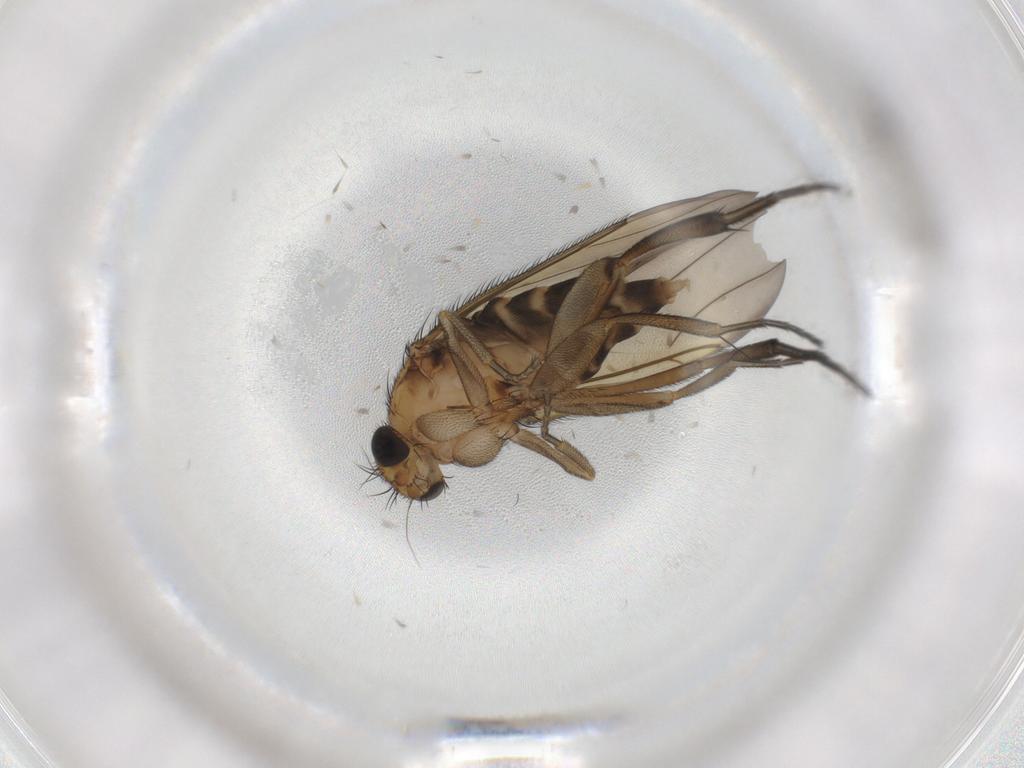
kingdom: Animalia
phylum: Arthropoda
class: Insecta
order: Diptera
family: Phoridae
